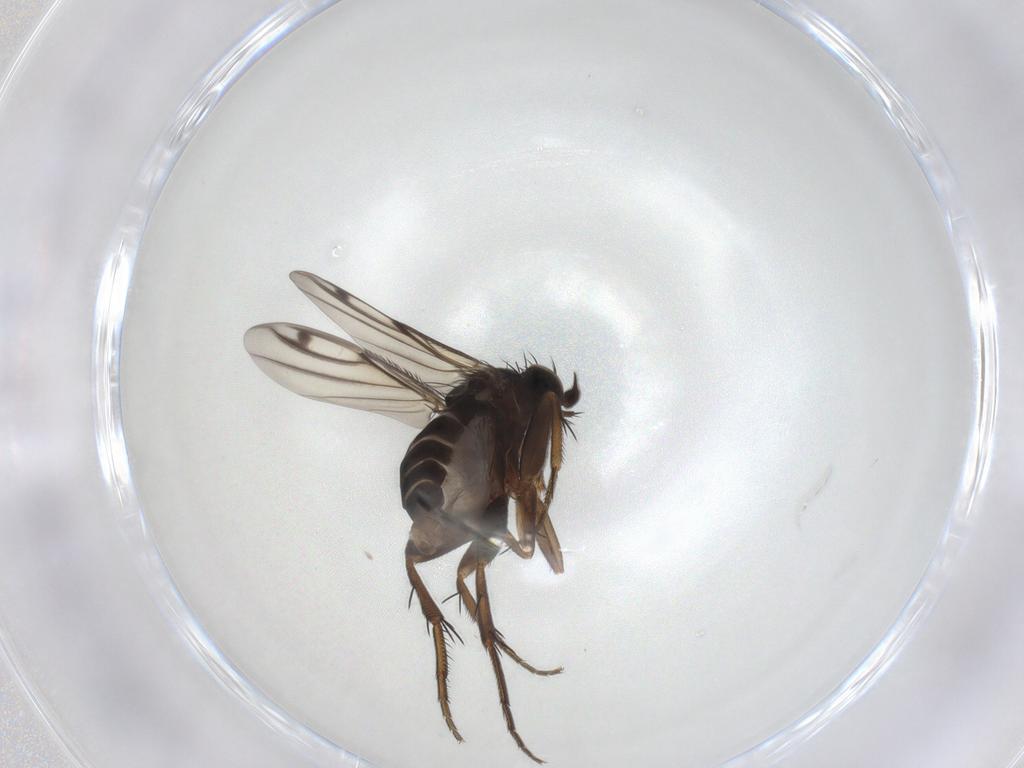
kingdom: Animalia
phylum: Arthropoda
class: Insecta
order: Diptera
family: Phoridae
